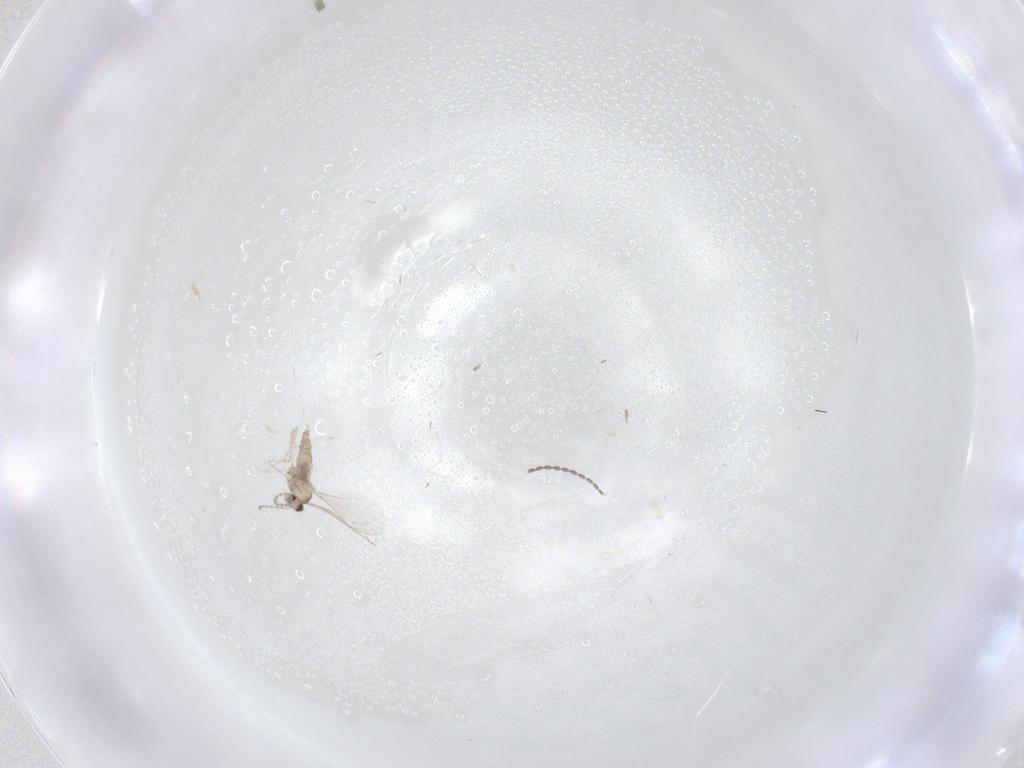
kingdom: Animalia
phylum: Arthropoda
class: Insecta
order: Diptera
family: Cecidomyiidae
